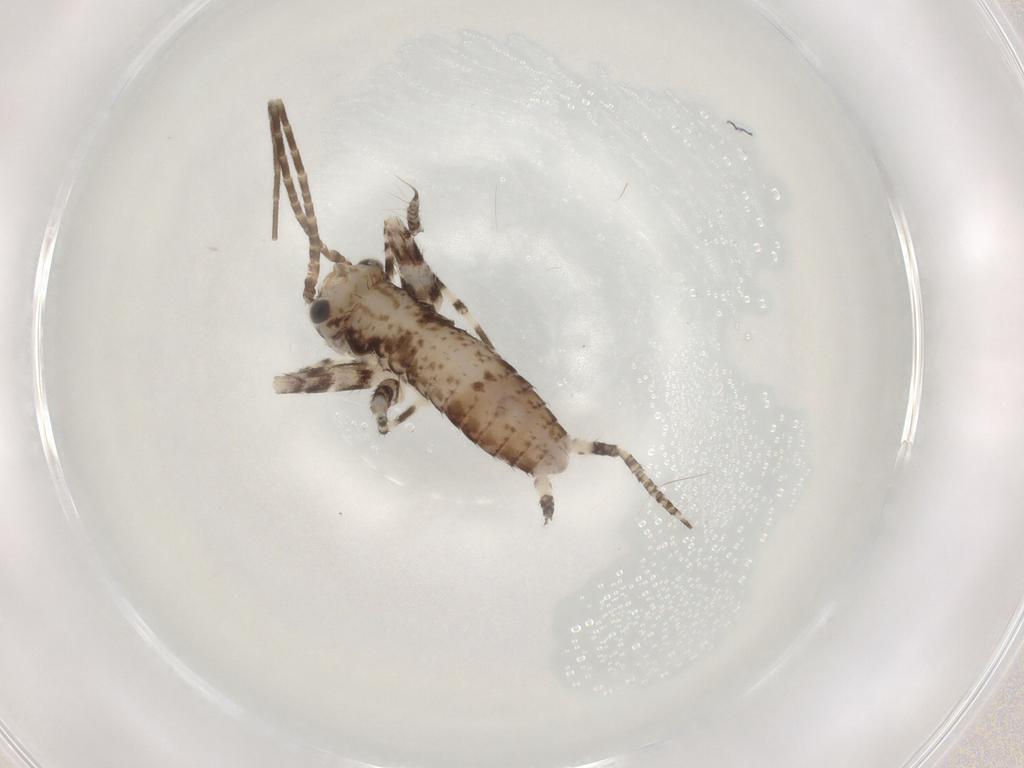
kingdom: Animalia
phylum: Arthropoda
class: Insecta
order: Orthoptera
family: Gryllidae
